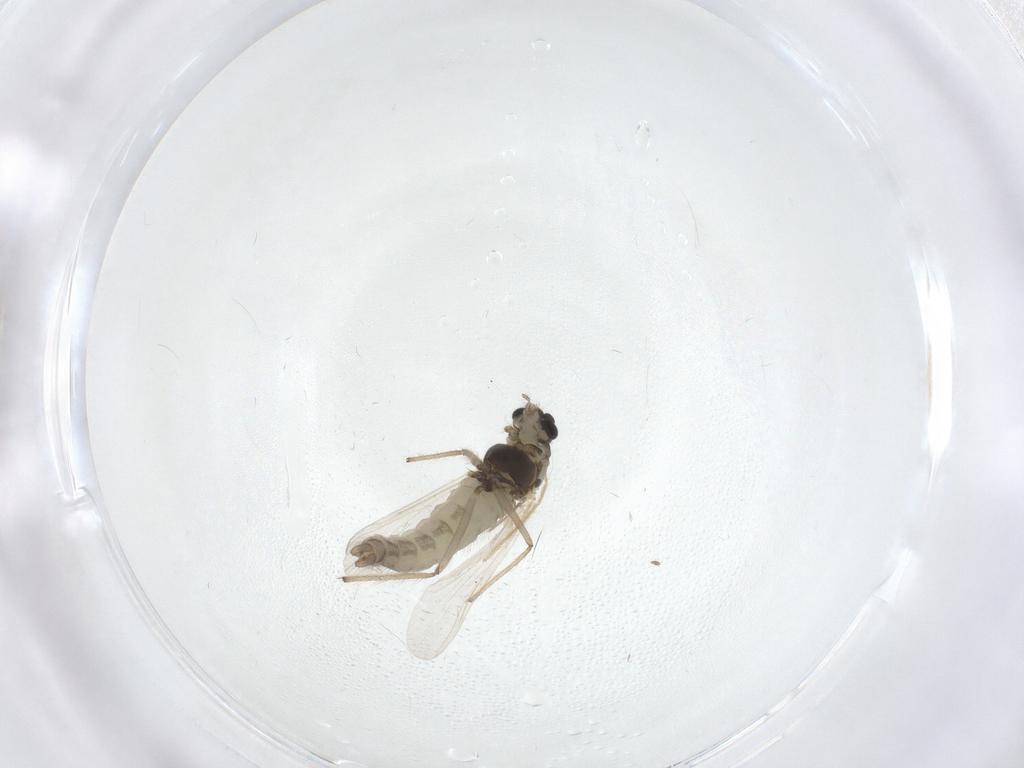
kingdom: Animalia
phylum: Arthropoda
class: Insecta
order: Diptera
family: Chironomidae
